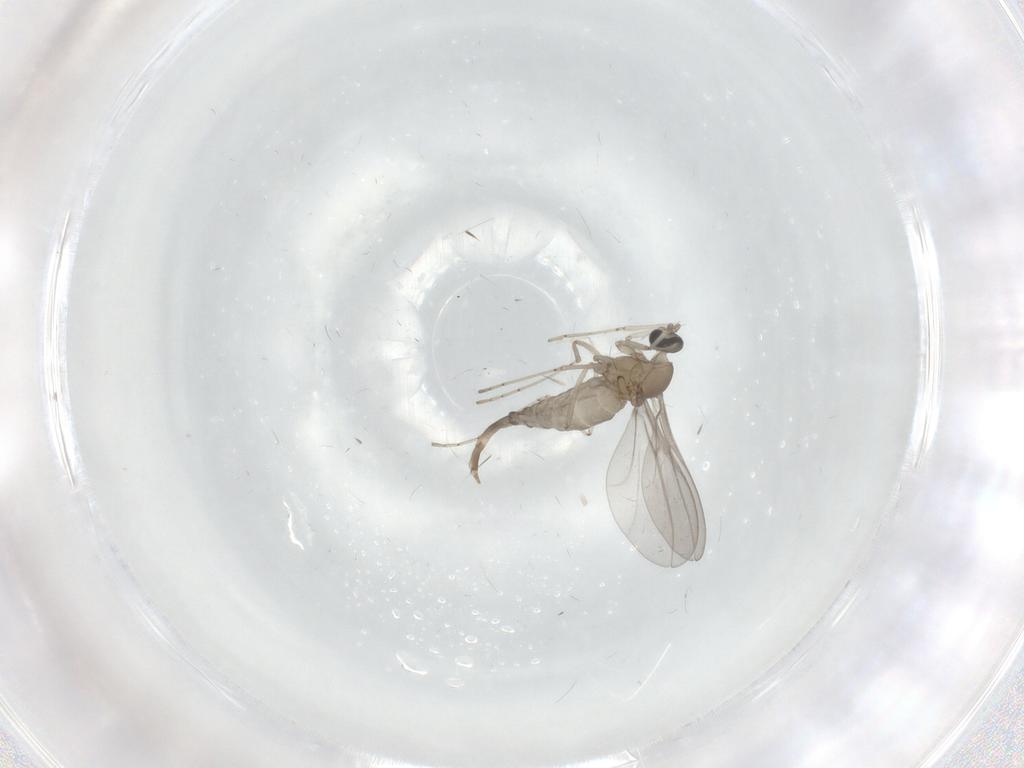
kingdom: Animalia
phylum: Arthropoda
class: Insecta
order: Diptera
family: Cecidomyiidae
